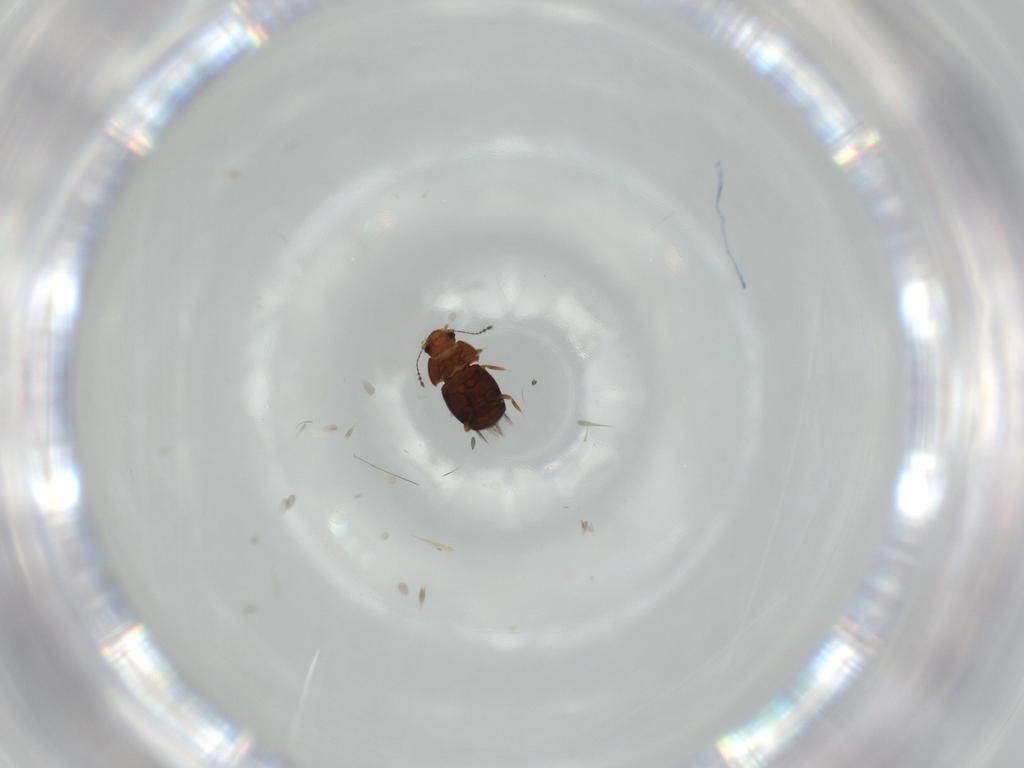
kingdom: Animalia
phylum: Arthropoda
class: Insecta
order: Coleoptera
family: Ptiliidae
